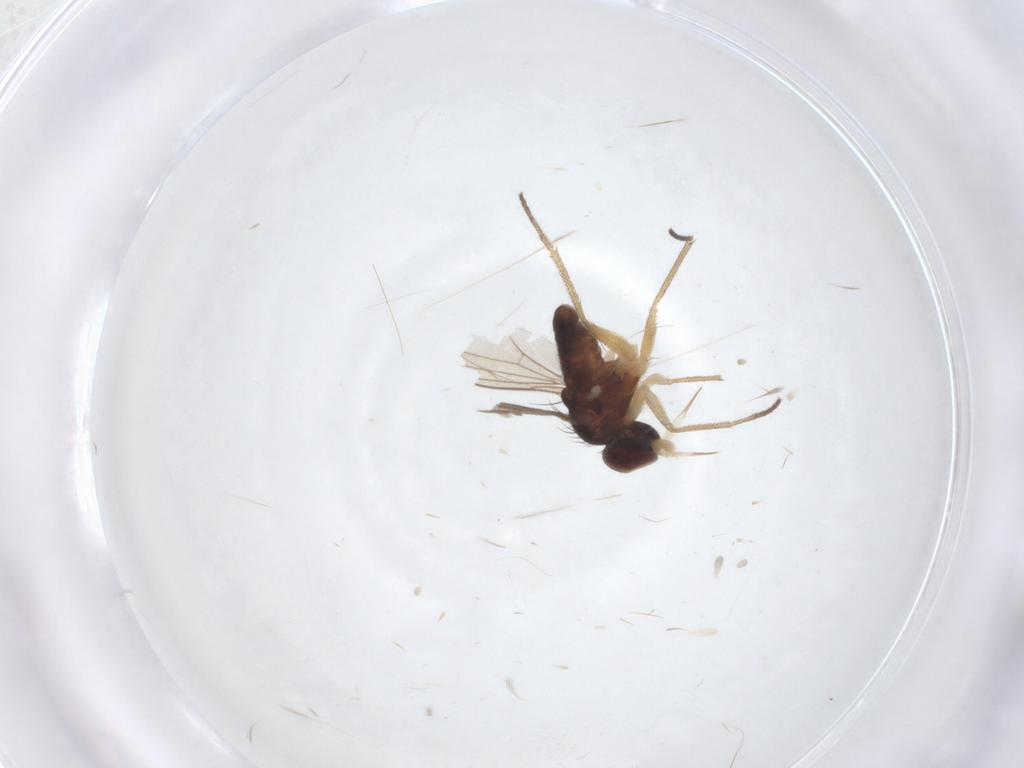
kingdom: Animalia
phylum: Arthropoda
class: Insecta
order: Diptera
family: Dolichopodidae
